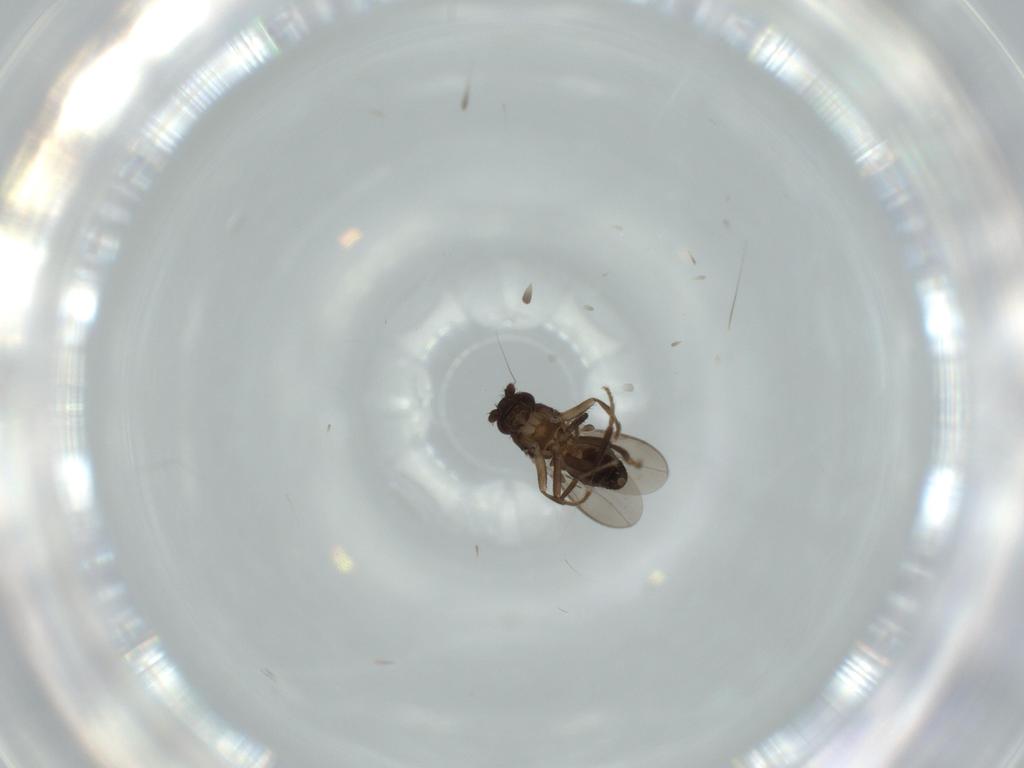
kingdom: Animalia
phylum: Arthropoda
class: Insecta
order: Diptera
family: Sphaeroceridae
